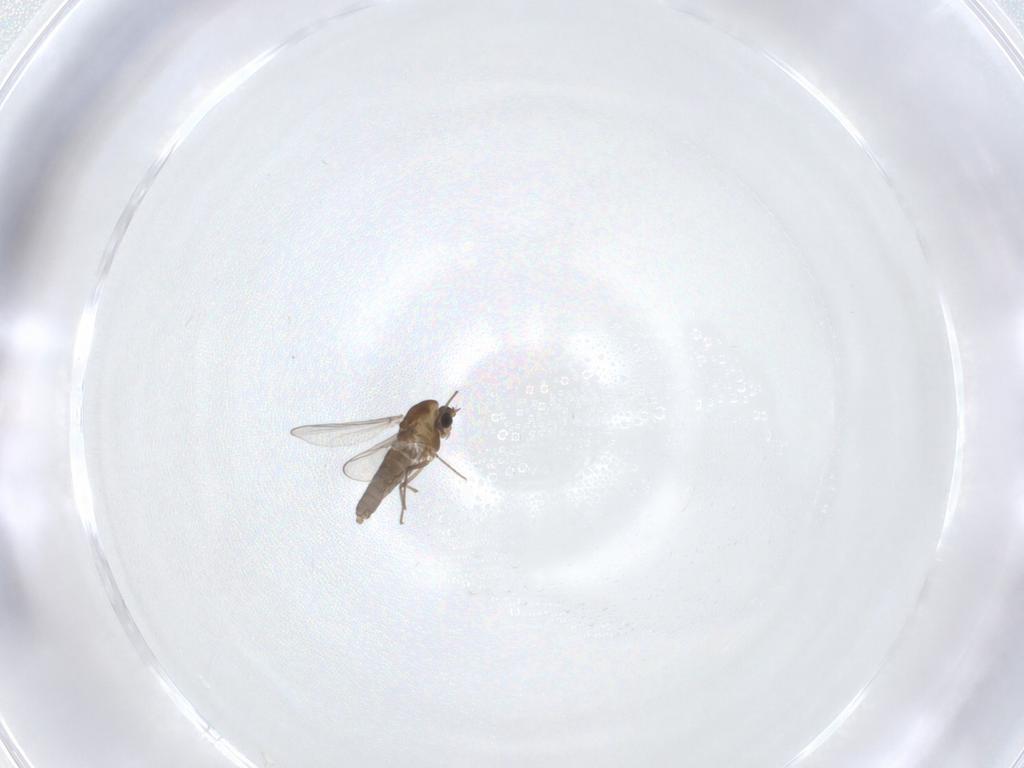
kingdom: Animalia
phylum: Arthropoda
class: Insecta
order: Diptera
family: Chironomidae
